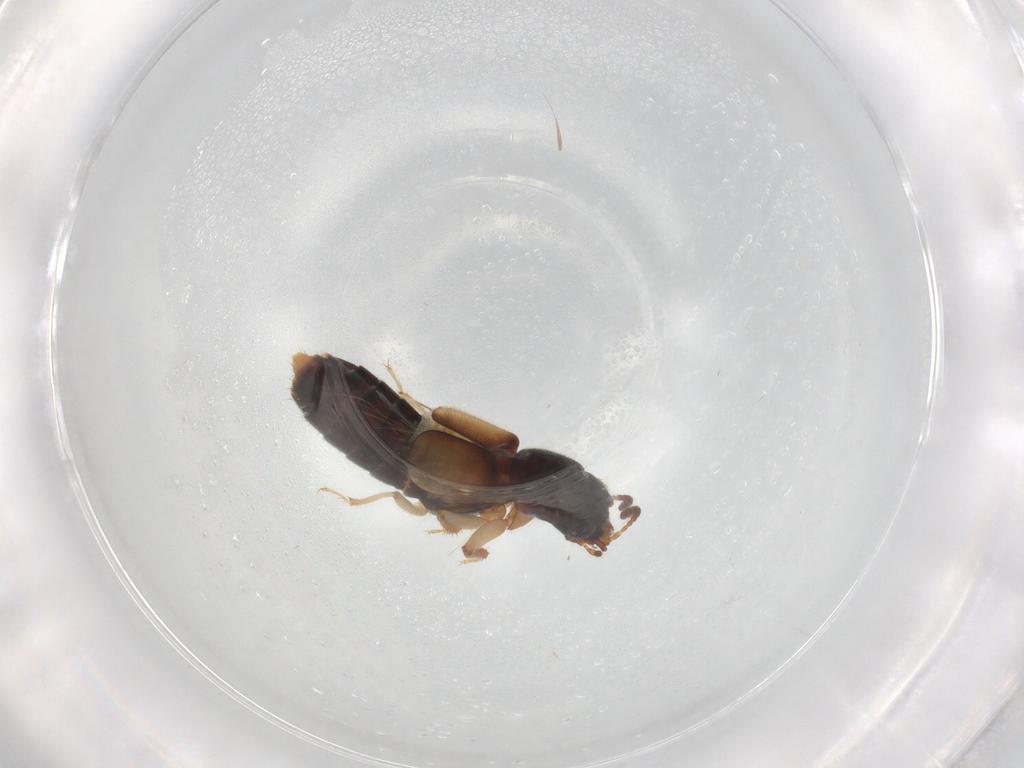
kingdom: Animalia
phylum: Arthropoda
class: Insecta
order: Coleoptera
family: Staphylinidae
